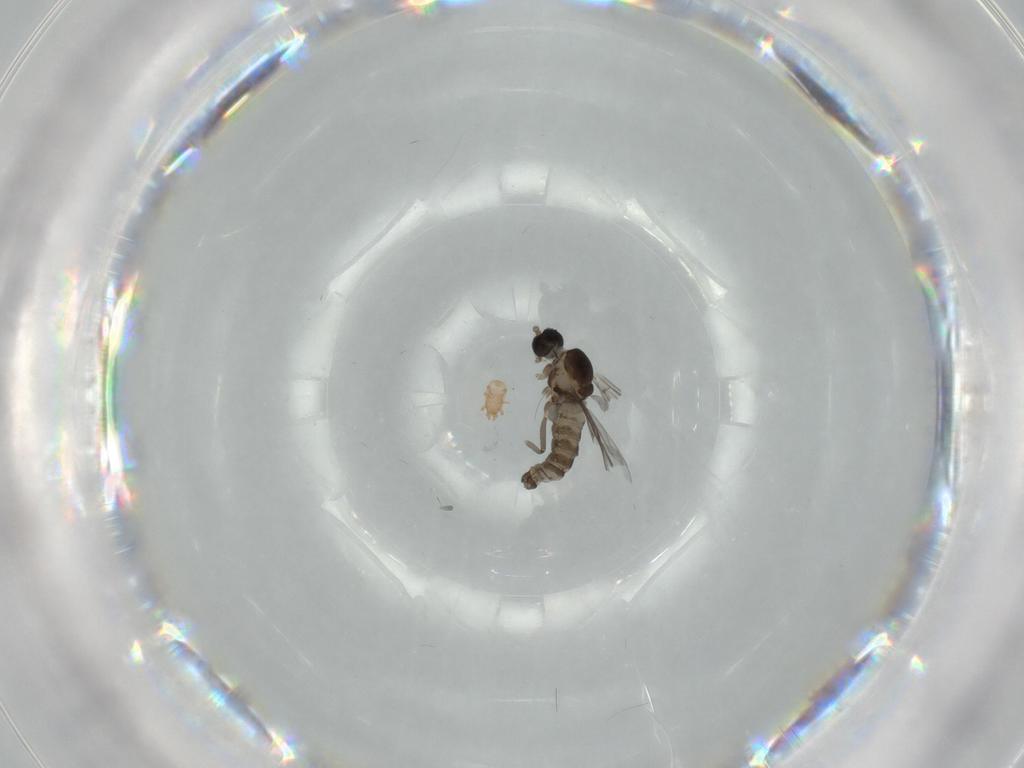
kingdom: Animalia
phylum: Arthropoda
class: Insecta
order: Diptera
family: Cecidomyiidae
